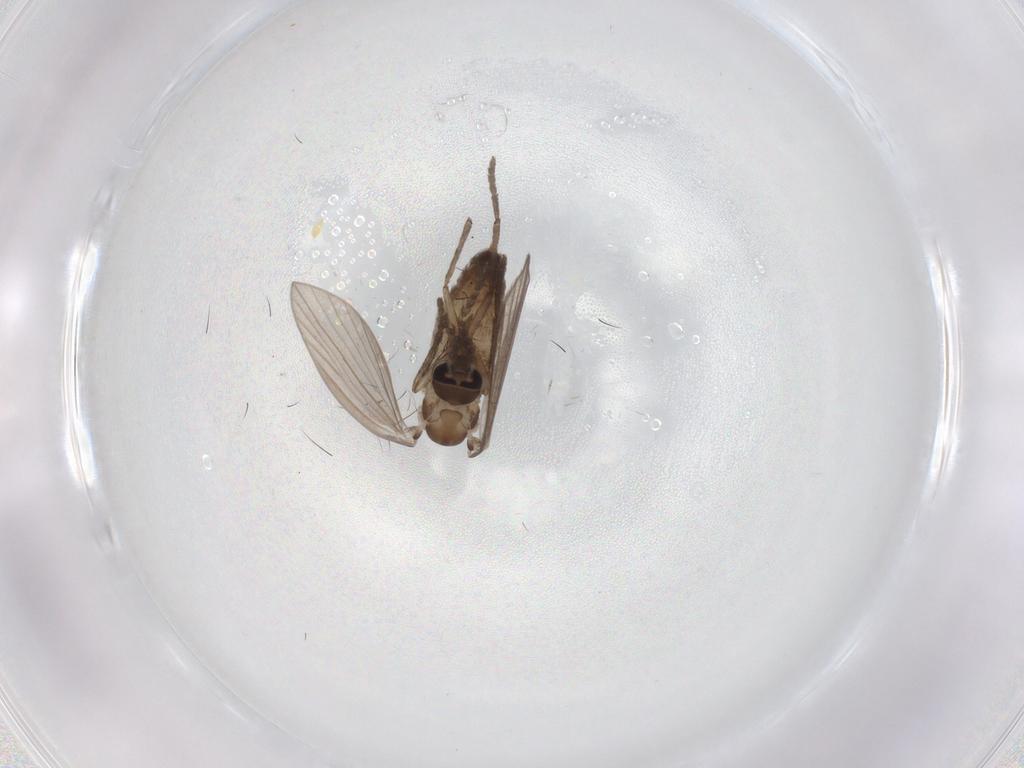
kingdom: Animalia
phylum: Arthropoda
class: Insecta
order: Diptera
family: Psychodidae
